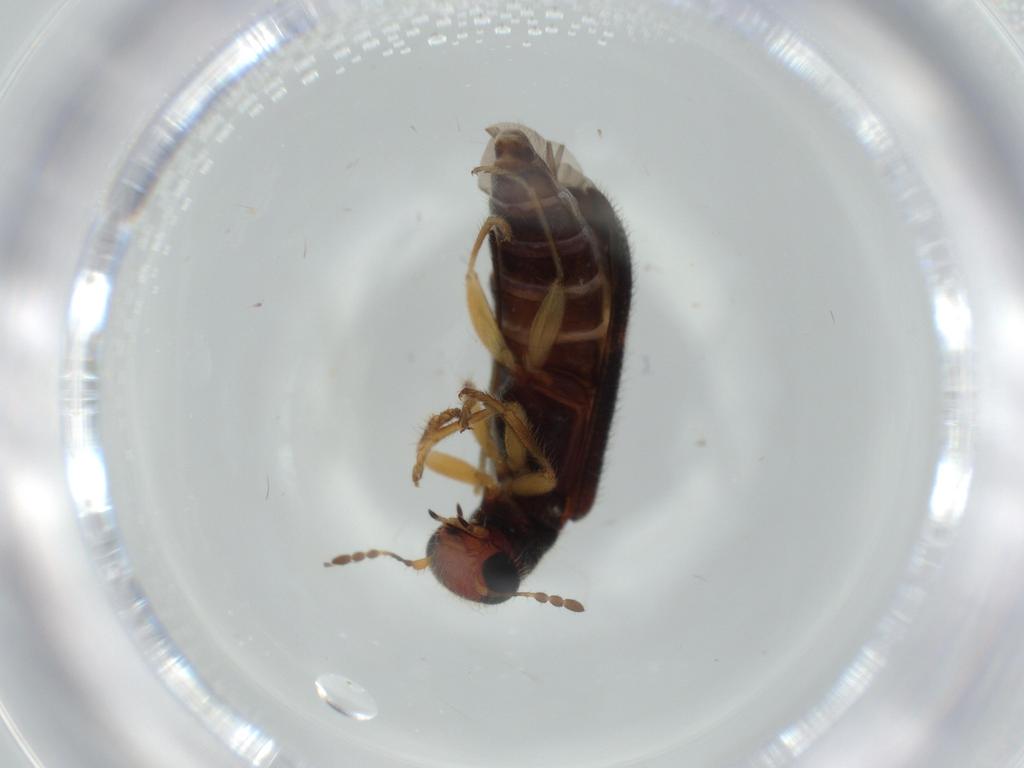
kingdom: Animalia
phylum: Arthropoda
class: Insecta
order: Coleoptera
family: Cleridae
